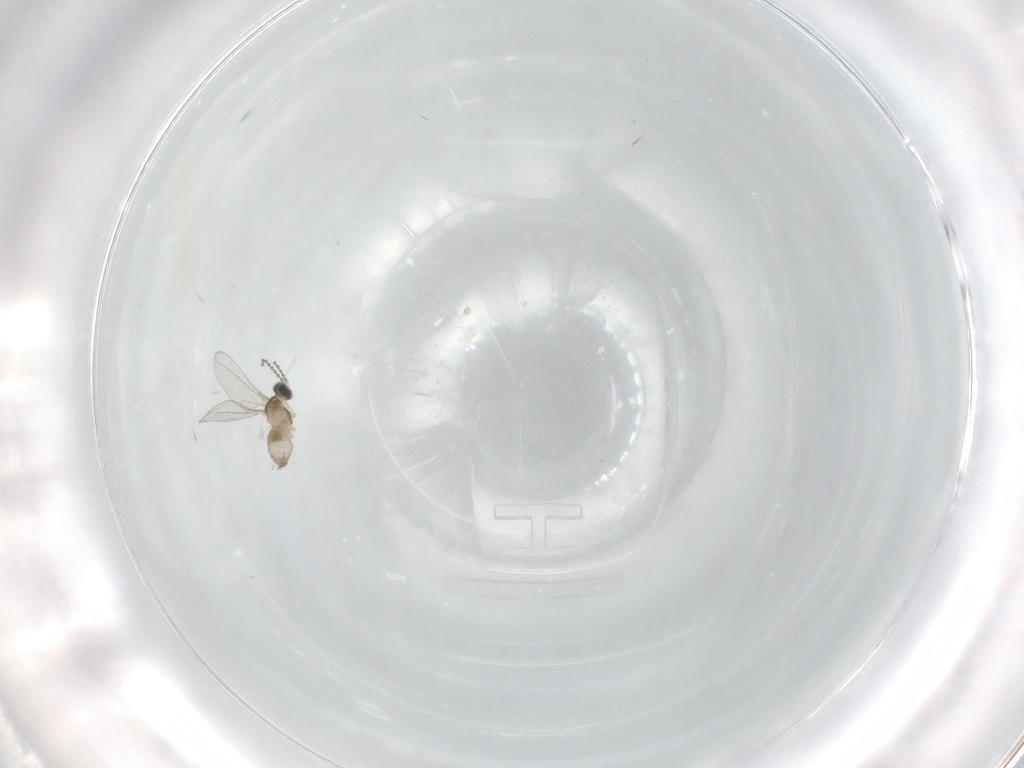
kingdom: Animalia
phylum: Arthropoda
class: Insecta
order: Diptera
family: Cecidomyiidae
